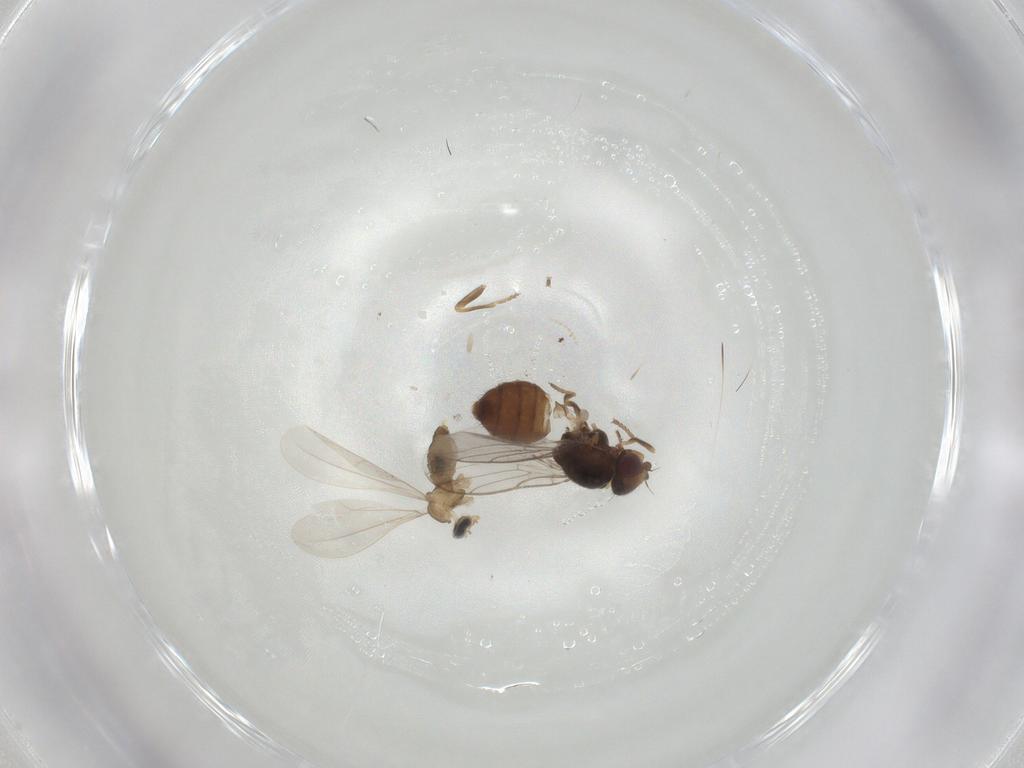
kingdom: Animalia
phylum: Arthropoda
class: Insecta
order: Diptera
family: Chloropidae
